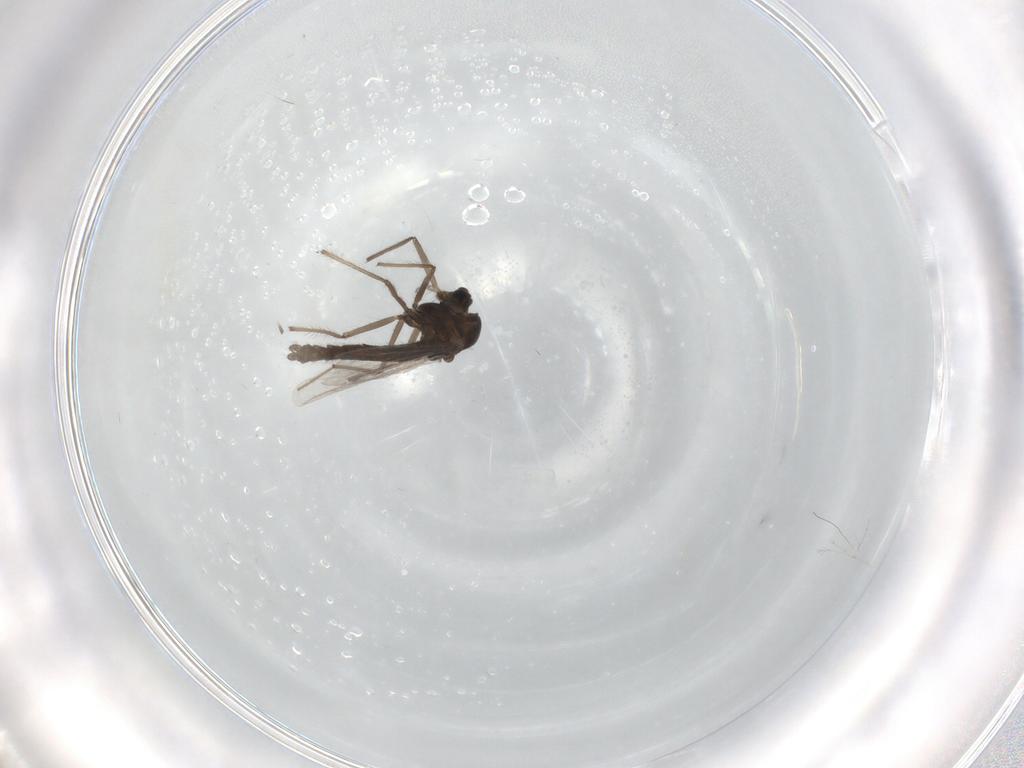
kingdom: Animalia
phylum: Arthropoda
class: Insecta
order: Diptera
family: Chironomidae
